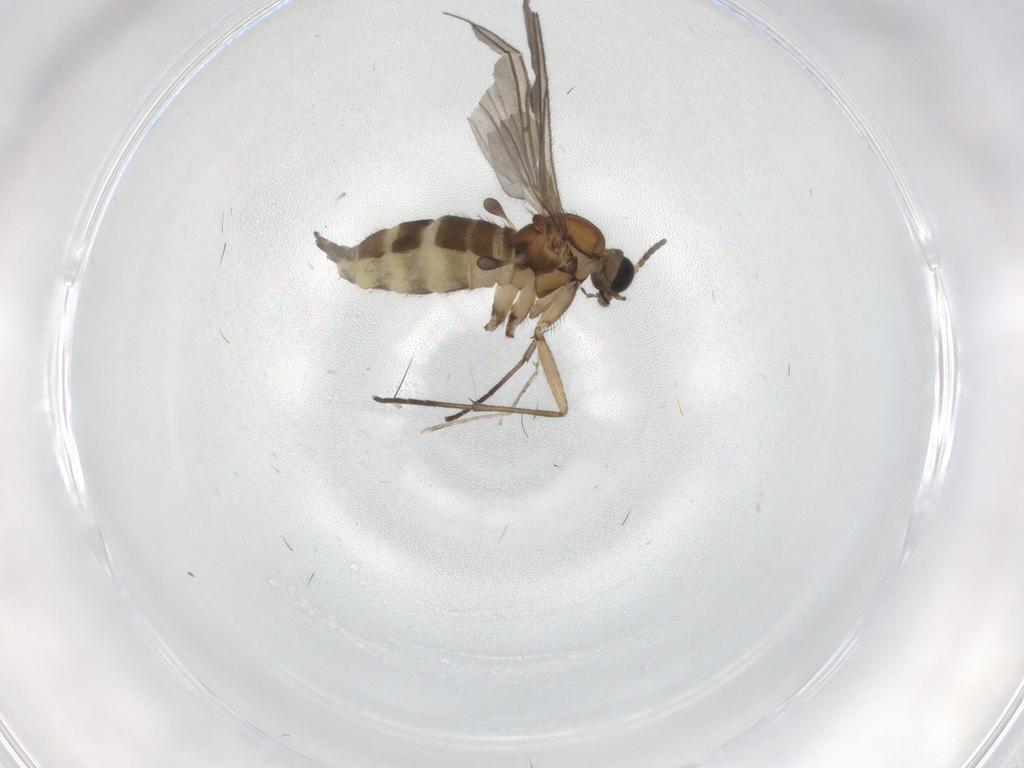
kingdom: Animalia
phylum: Arthropoda
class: Insecta
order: Diptera
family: Sciaridae
